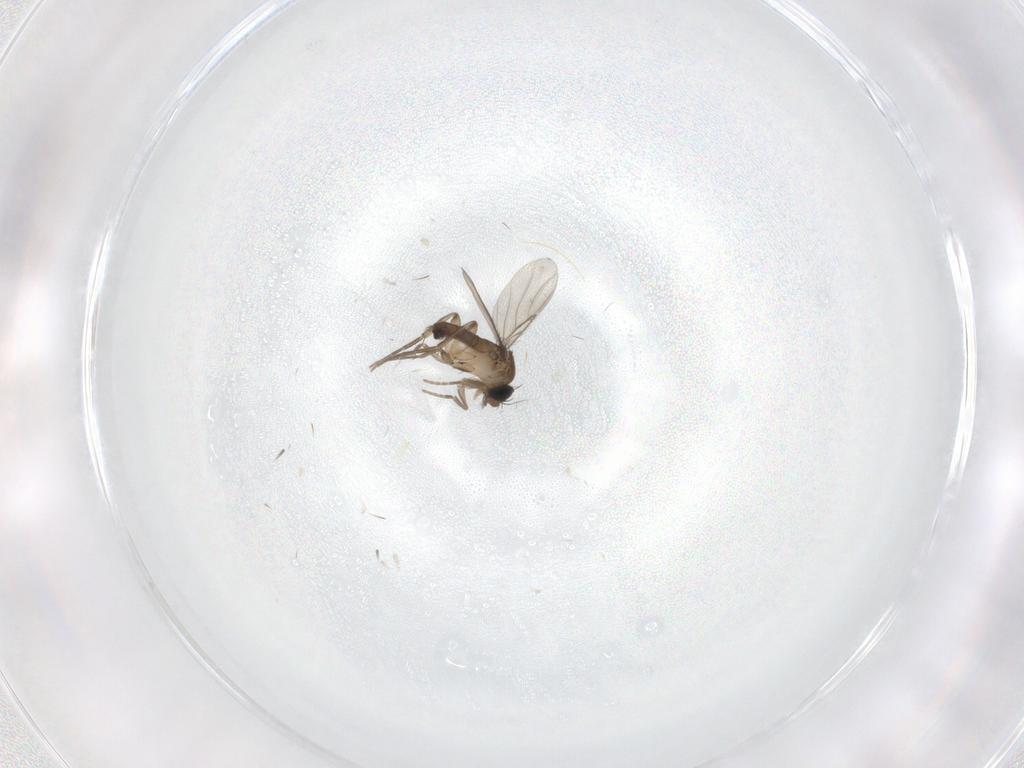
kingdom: Animalia
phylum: Arthropoda
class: Insecta
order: Diptera
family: Phoridae
